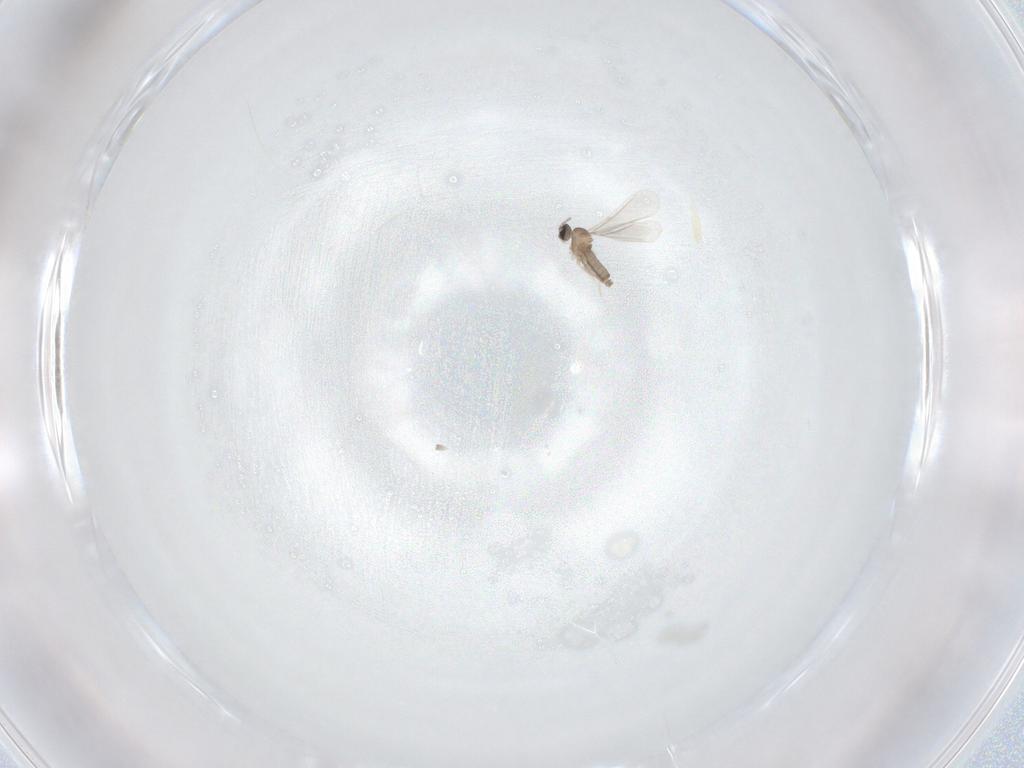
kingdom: Animalia
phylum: Arthropoda
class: Insecta
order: Diptera
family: Cecidomyiidae
